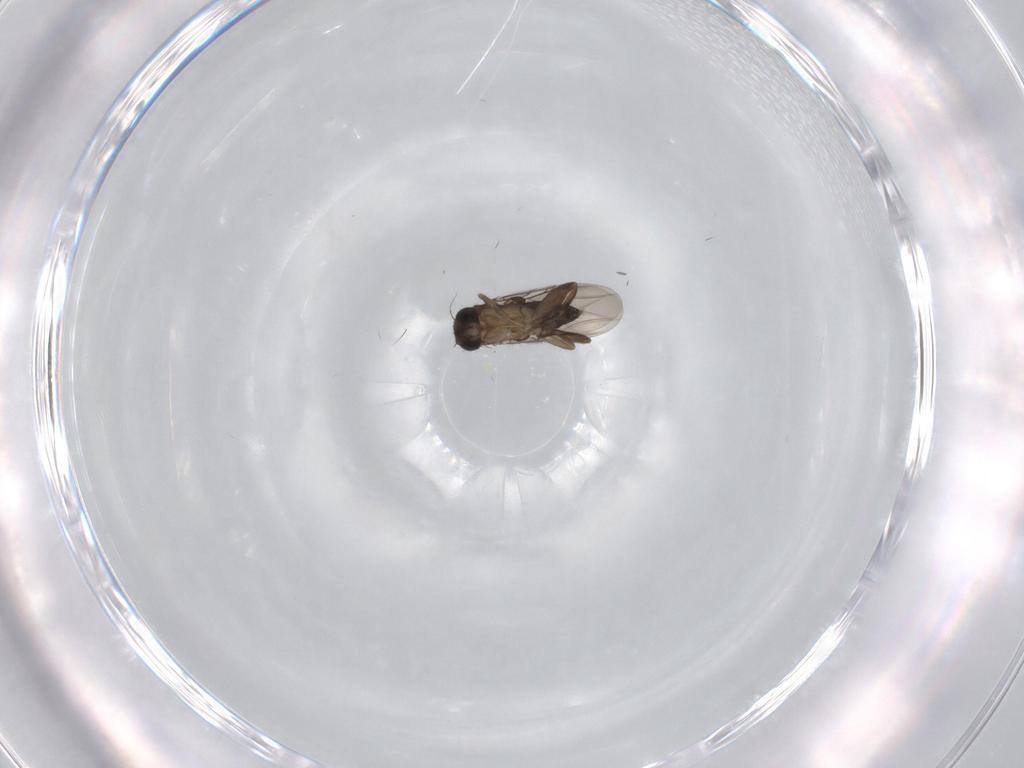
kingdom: Animalia
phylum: Arthropoda
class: Insecta
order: Diptera
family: Phoridae
